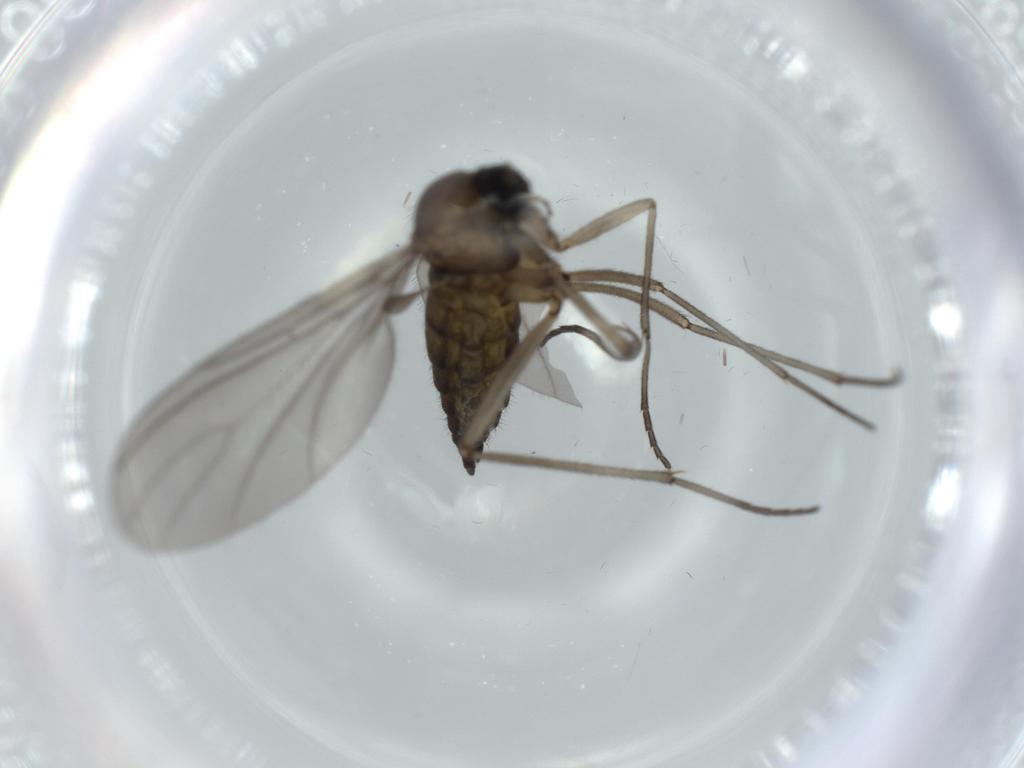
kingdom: Animalia
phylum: Arthropoda
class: Insecta
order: Diptera
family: Sciaridae
